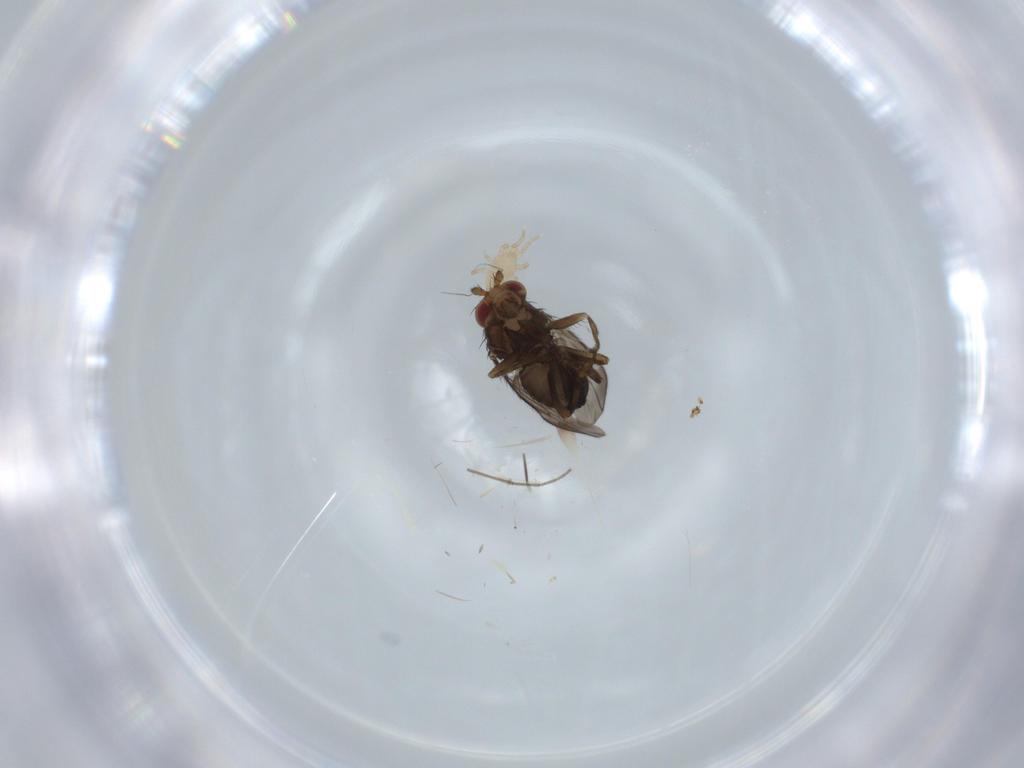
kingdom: Animalia
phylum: Arthropoda
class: Insecta
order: Diptera
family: Sphaeroceridae
